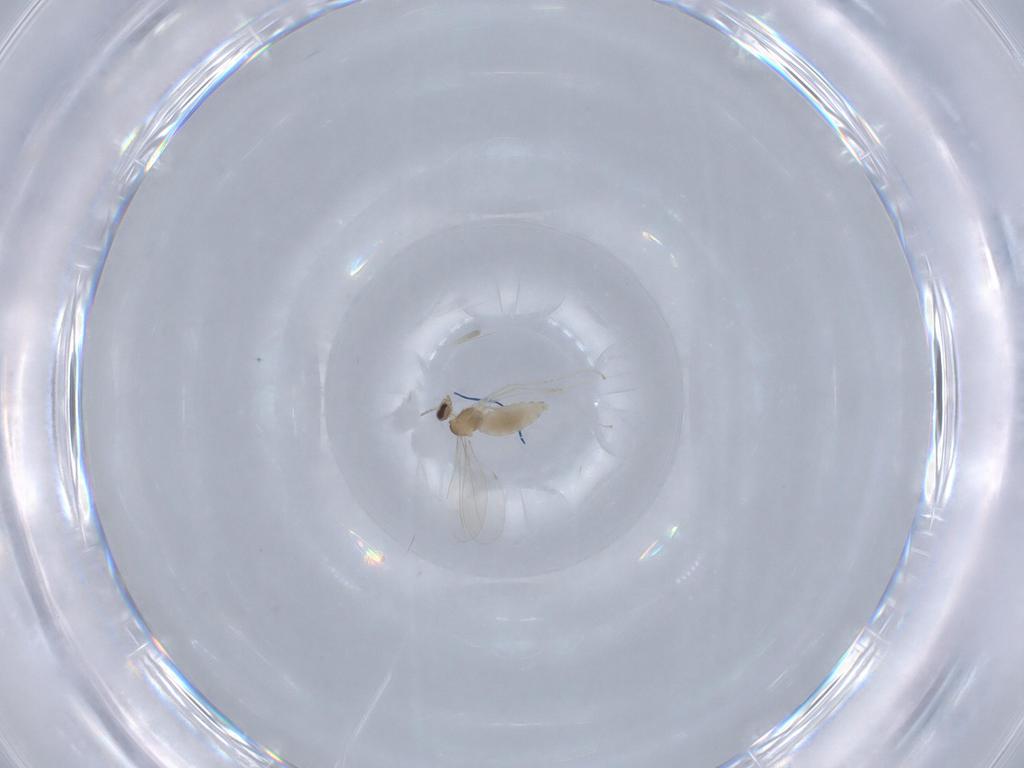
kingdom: Animalia
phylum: Arthropoda
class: Insecta
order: Diptera
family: Cecidomyiidae
